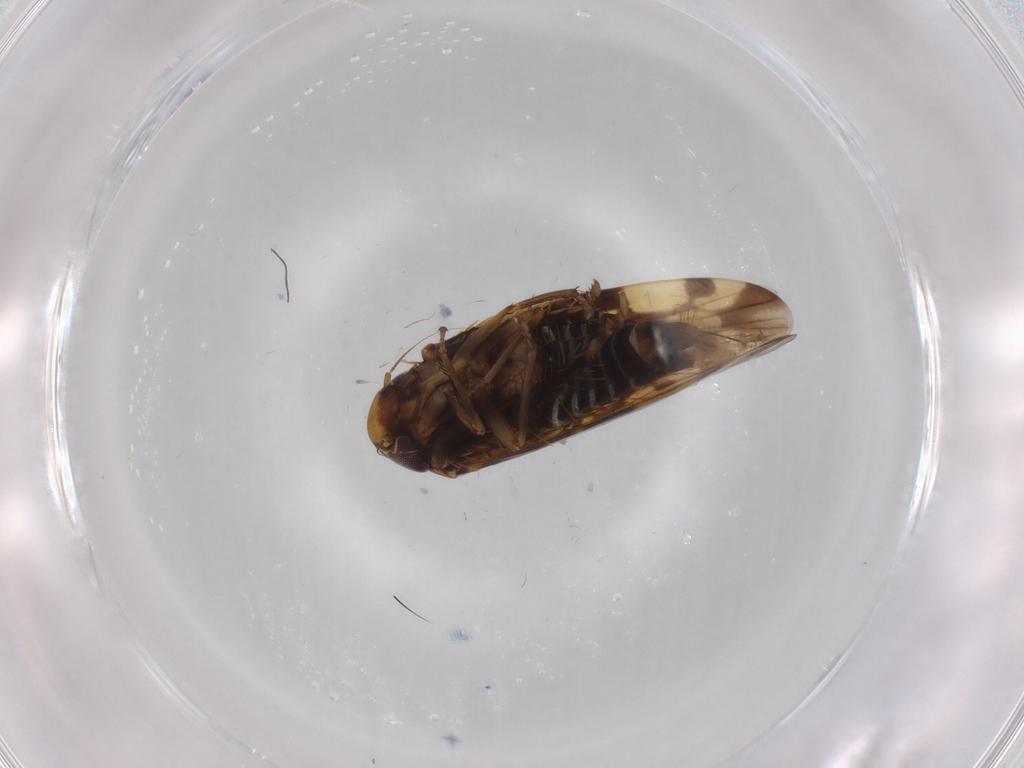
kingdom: Animalia
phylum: Arthropoda
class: Insecta
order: Hemiptera
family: Cicadellidae
